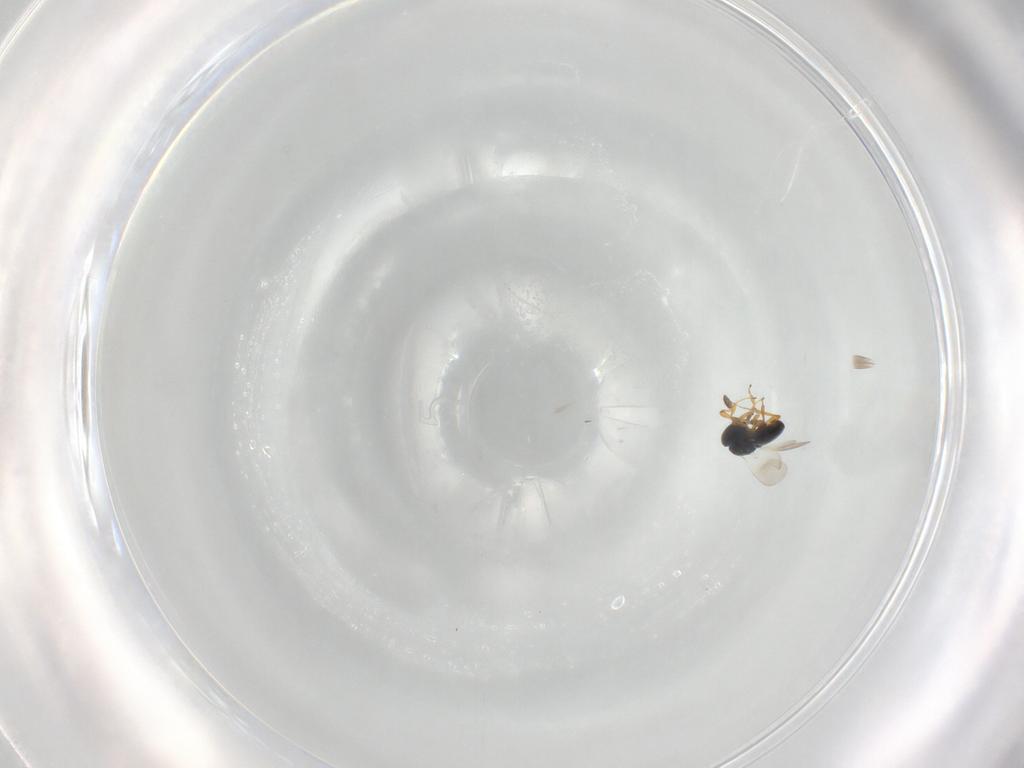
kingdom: Animalia
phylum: Arthropoda
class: Insecta
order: Hymenoptera
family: Platygastridae
